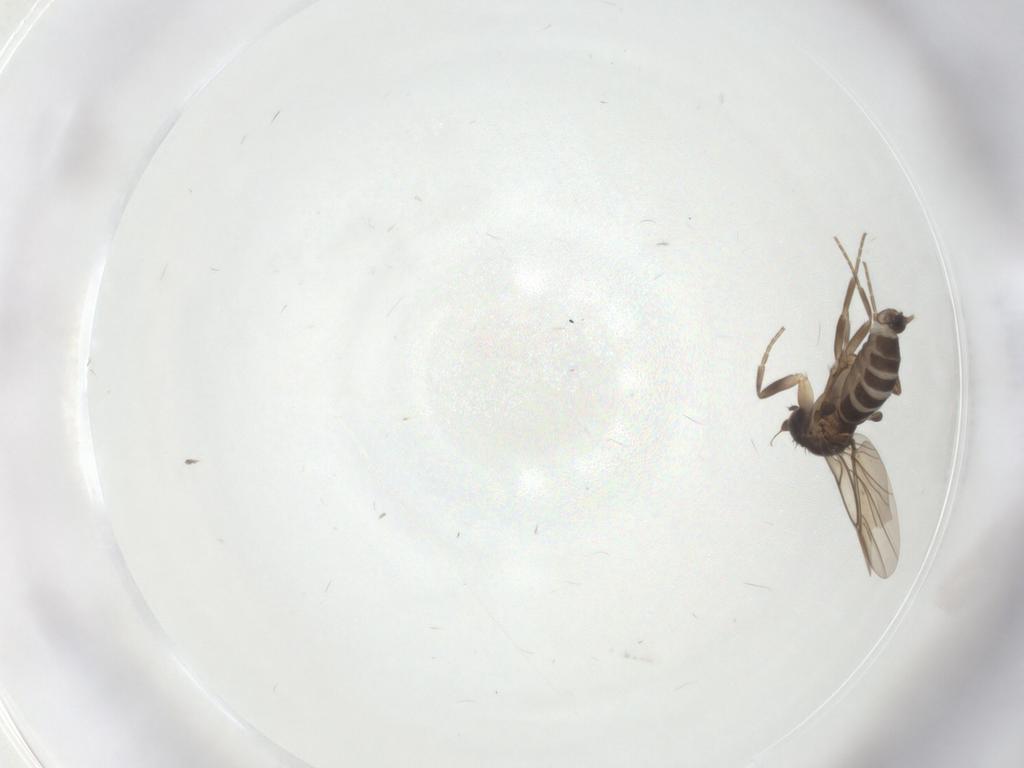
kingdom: Animalia
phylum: Arthropoda
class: Insecta
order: Diptera
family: Phoridae
